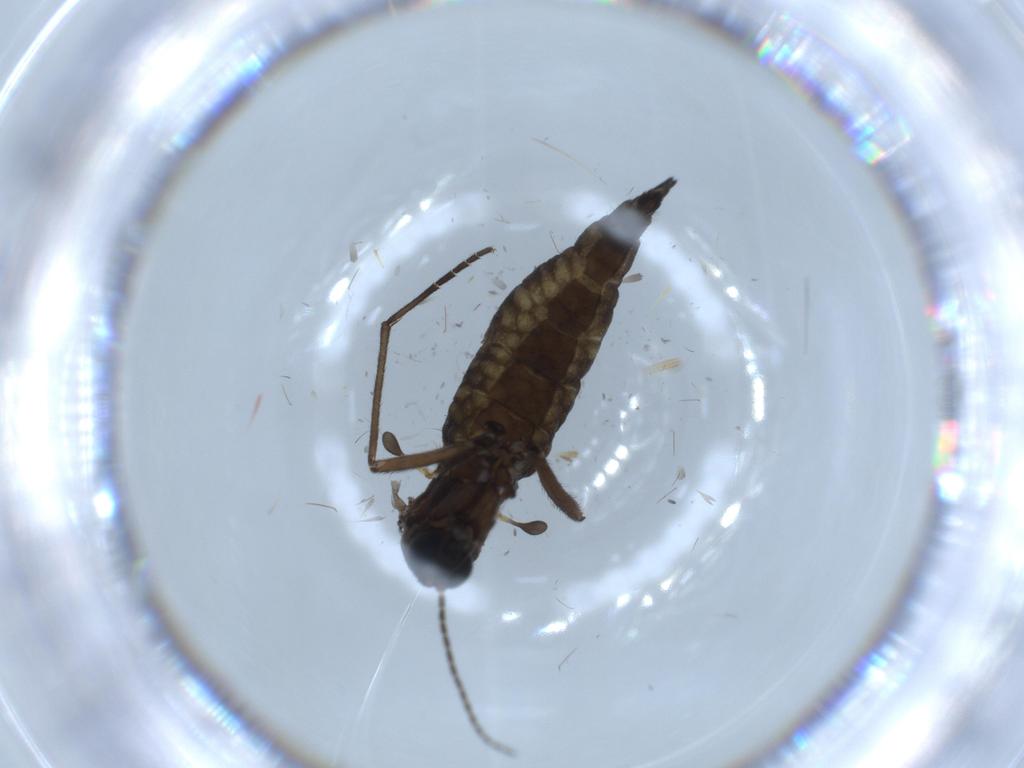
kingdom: Animalia
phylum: Arthropoda
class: Insecta
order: Diptera
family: Sciaridae
